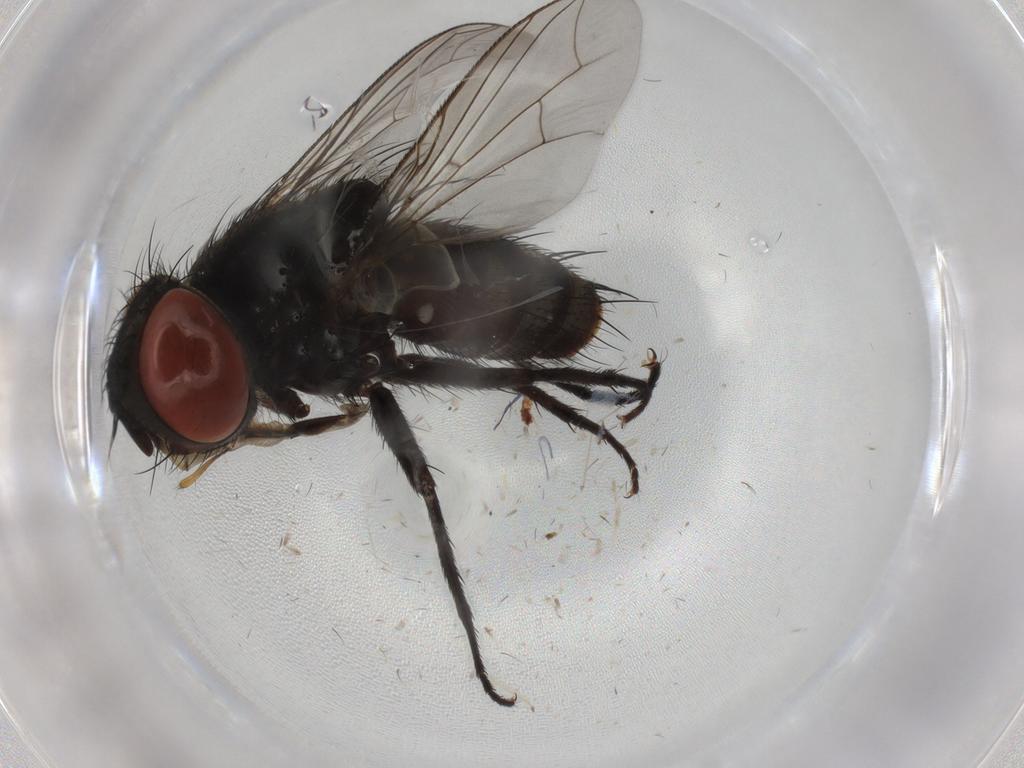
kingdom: Animalia
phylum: Arthropoda
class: Insecta
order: Diptera
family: Sarcophagidae
